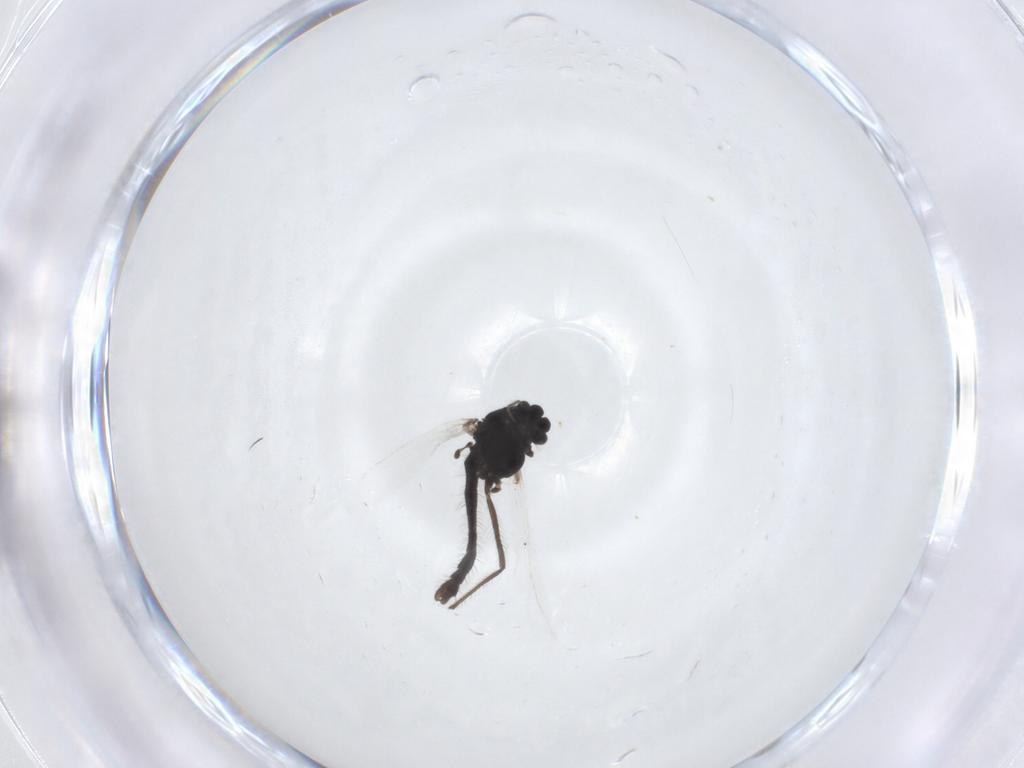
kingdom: Animalia
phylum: Arthropoda
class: Insecta
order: Diptera
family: Chironomidae
